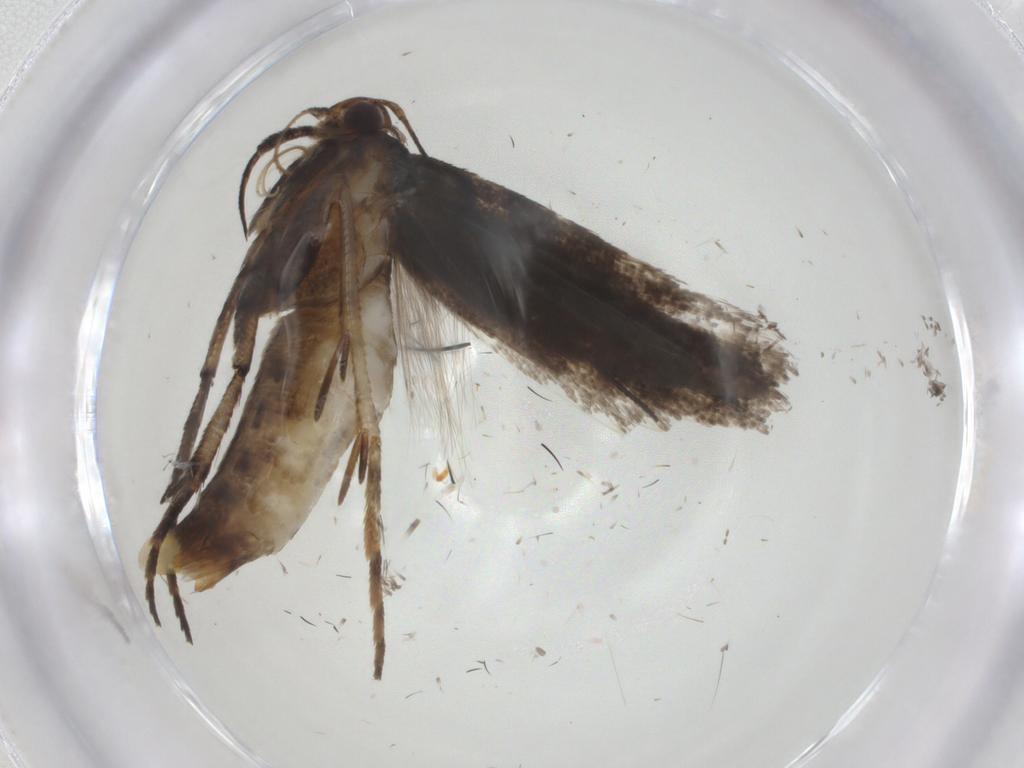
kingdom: Animalia
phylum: Arthropoda
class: Insecta
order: Lepidoptera
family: Gelechiidae
